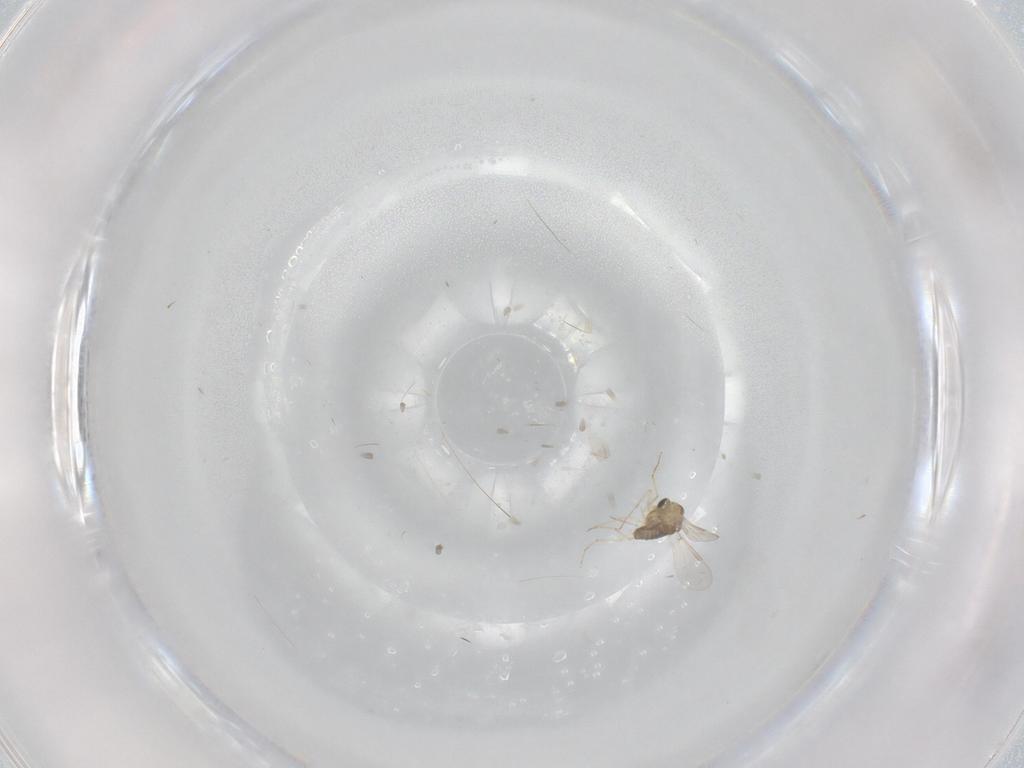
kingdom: Animalia
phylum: Arthropoda
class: Insecta
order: Diptera
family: Chironomidae
